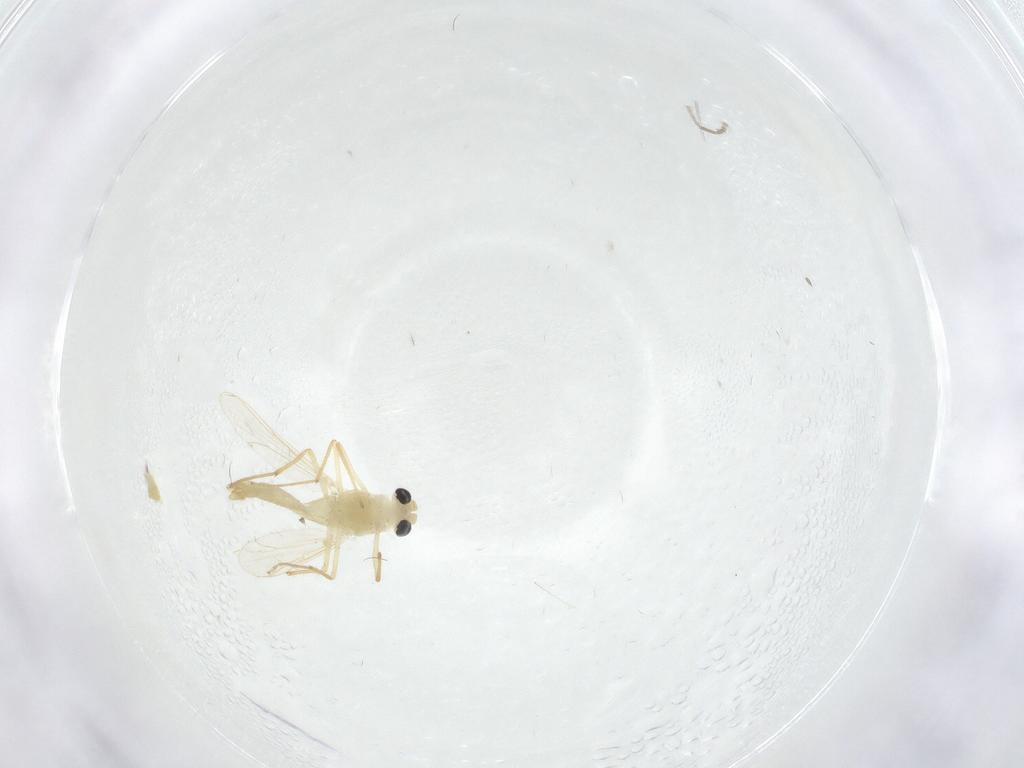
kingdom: Animalia
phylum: Arthropoda
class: Insecta
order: Diptera
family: Chironomidae
